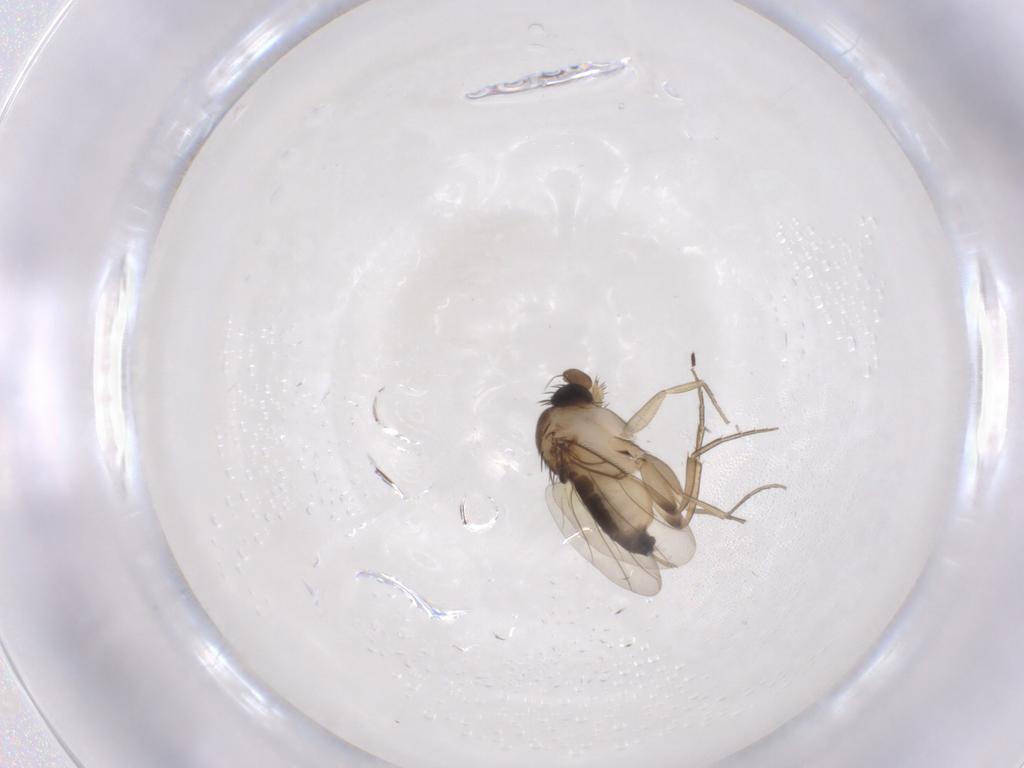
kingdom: Animalia
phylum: Arthropoda
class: Insecta
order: Diptera
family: Phoridae
